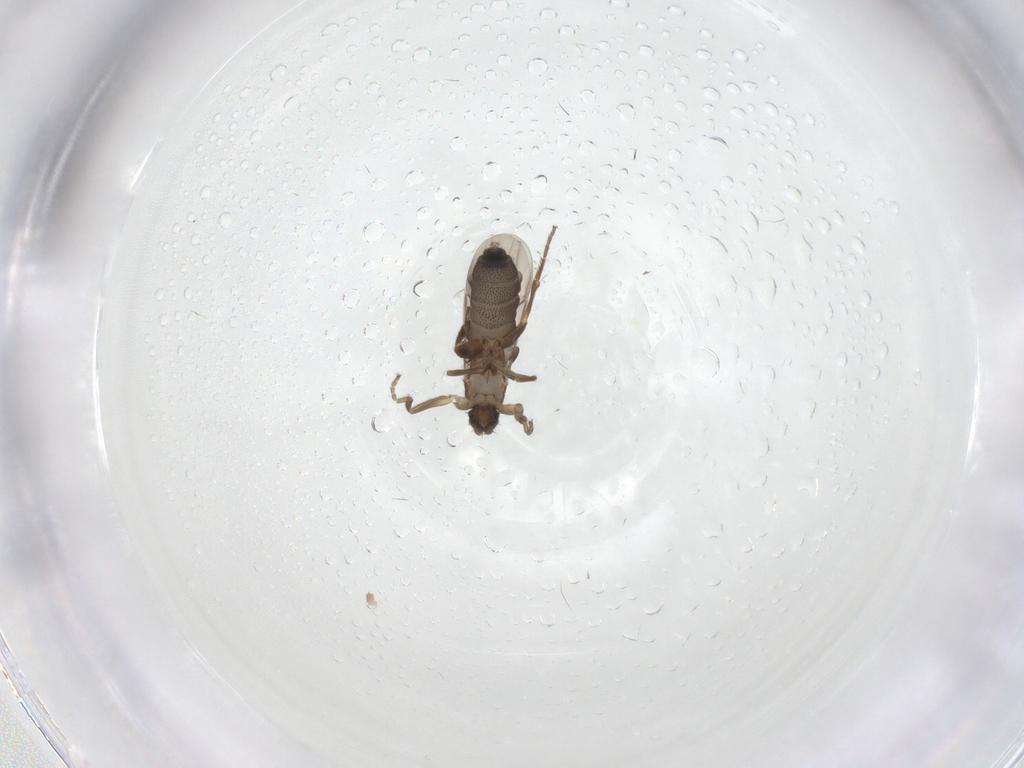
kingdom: Animalia
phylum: Arthropoda
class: Insecta
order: Diptera
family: Phoridae
